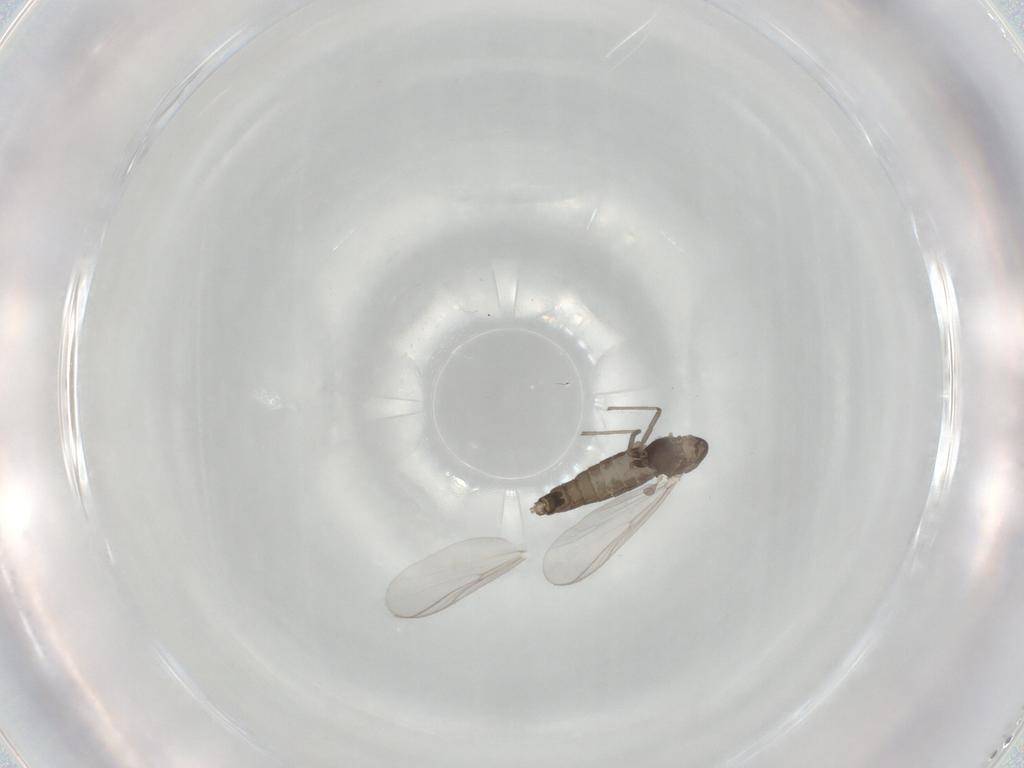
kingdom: Animalia
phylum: Arthropoda
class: Insecta
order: Diptera
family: Chironomidae
